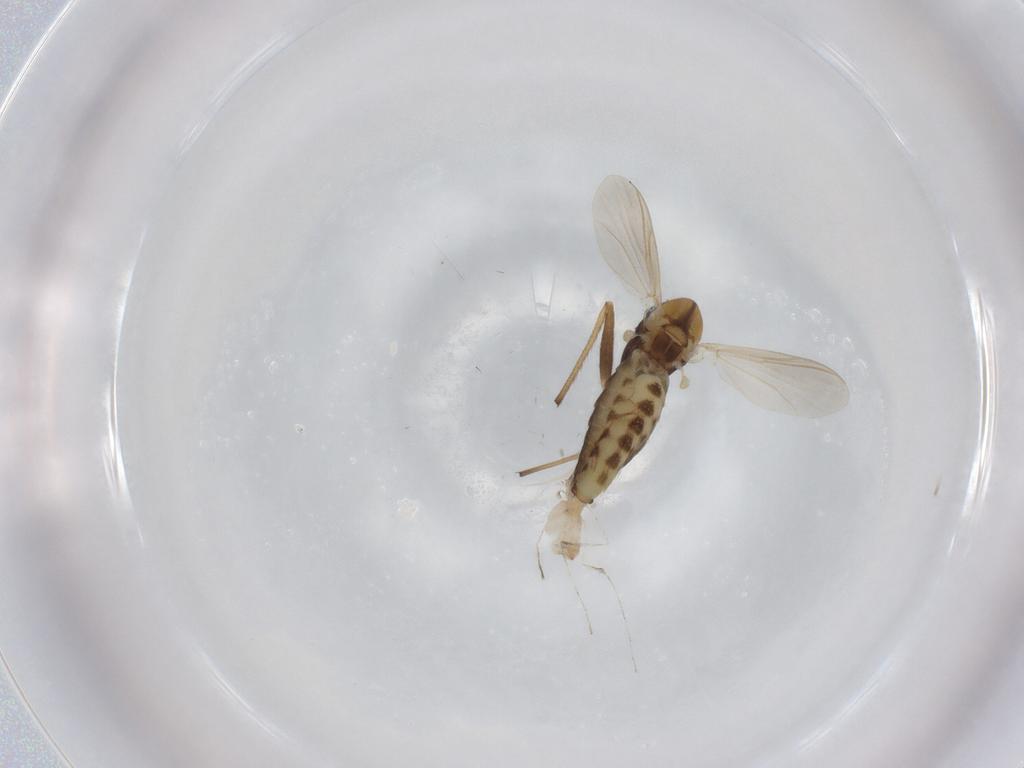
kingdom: Animalia
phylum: Arthropoda
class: Insecta
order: Diptera
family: Chironomidae
